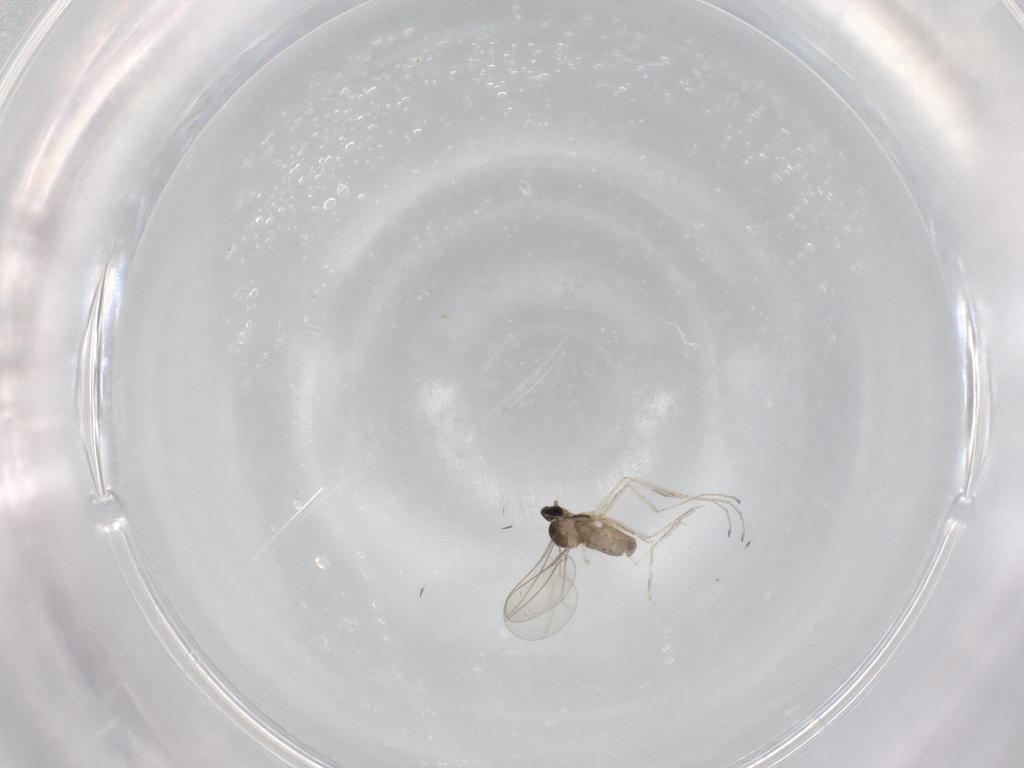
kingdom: Animalia
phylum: Arthropoda
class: Insecta
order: Diptera
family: Cecidomyiidae
